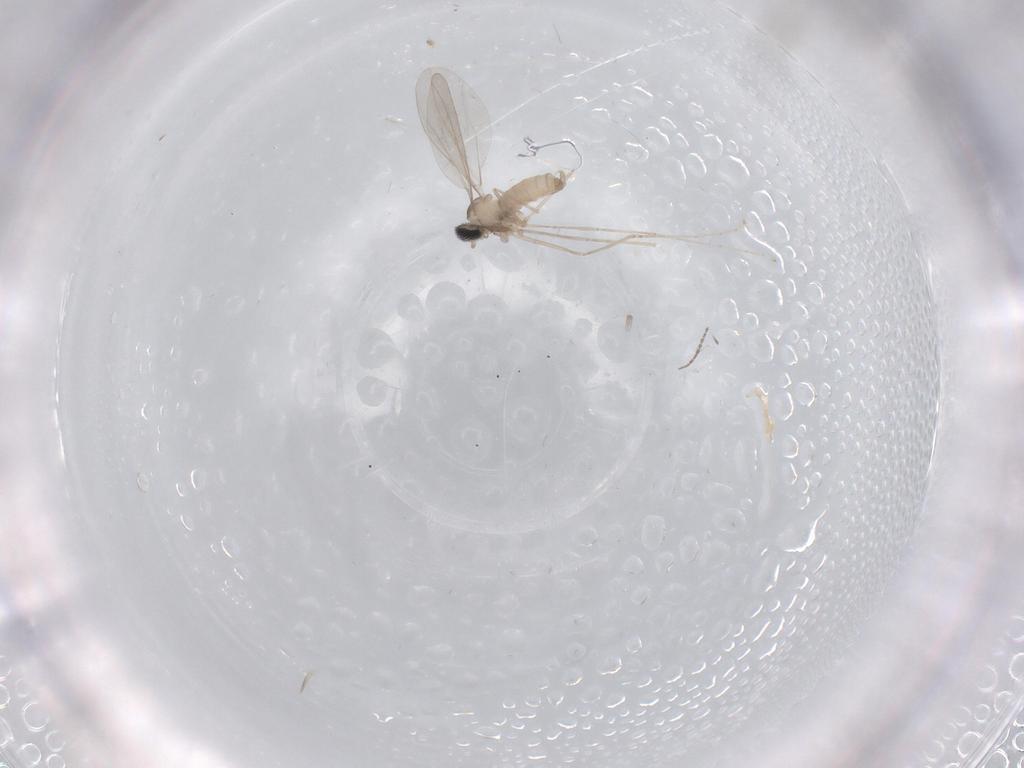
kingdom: Animalia
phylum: Arthropoda
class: Insecta
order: Diptera
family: Cecidomyiidae
